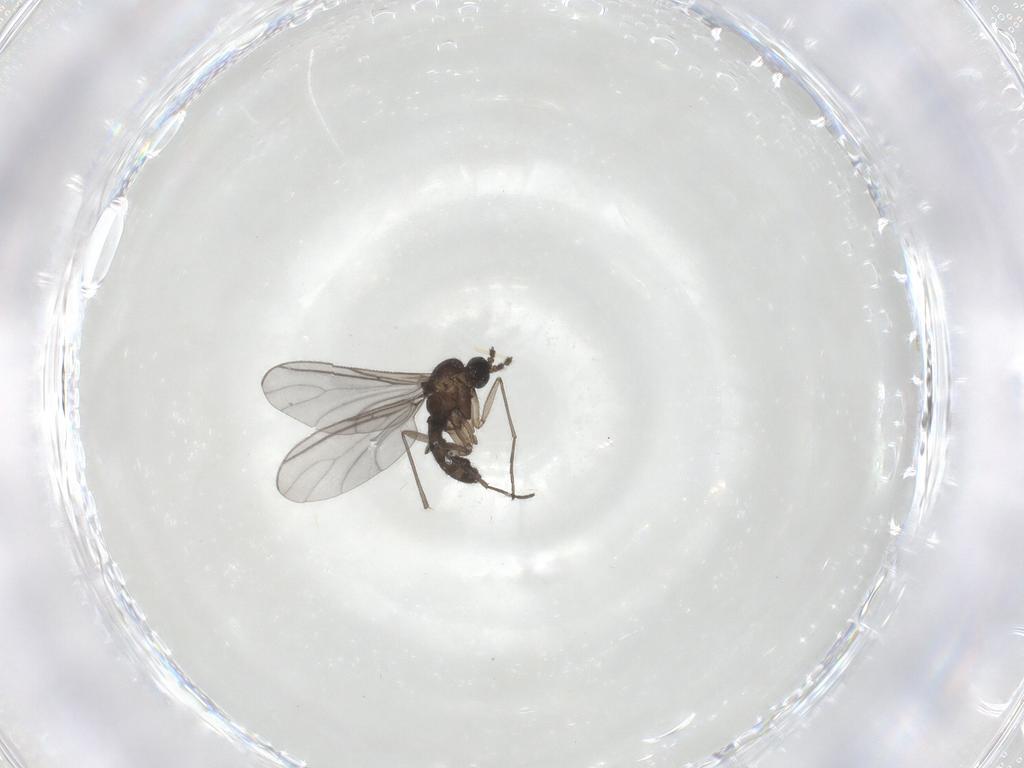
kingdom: Animalia
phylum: Arthropoda
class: Insecta
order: Diptera
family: Sciaridae
